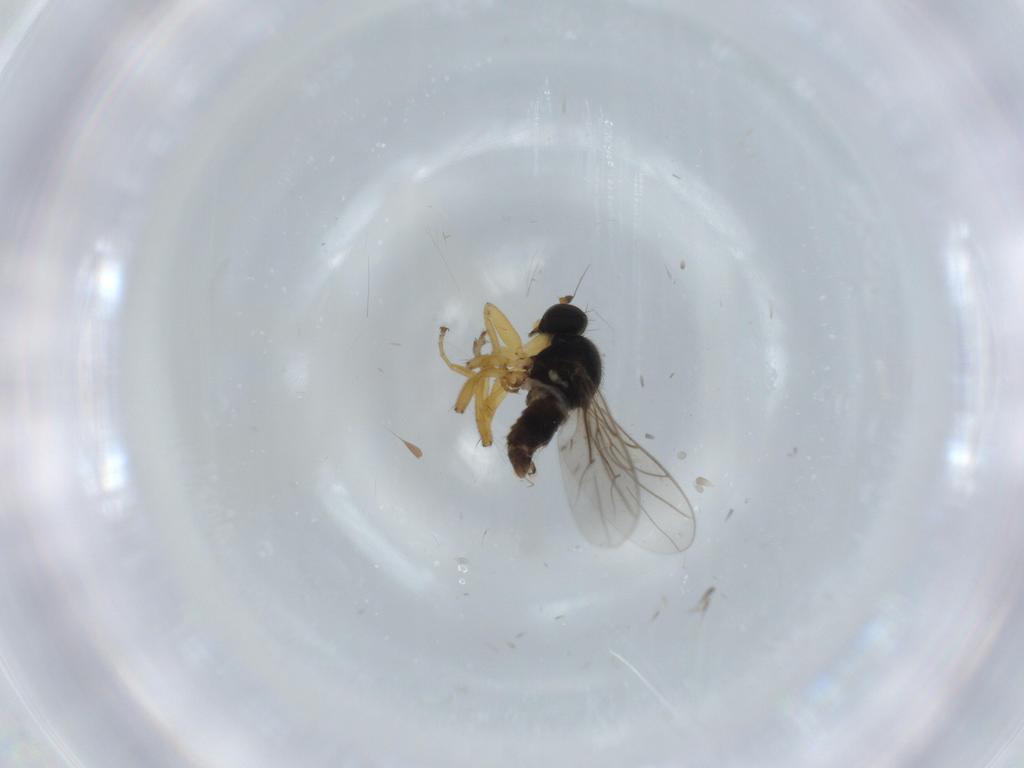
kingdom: Animalia
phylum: Arthropoda
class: Insecta
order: Diptera
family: Hybotidae
